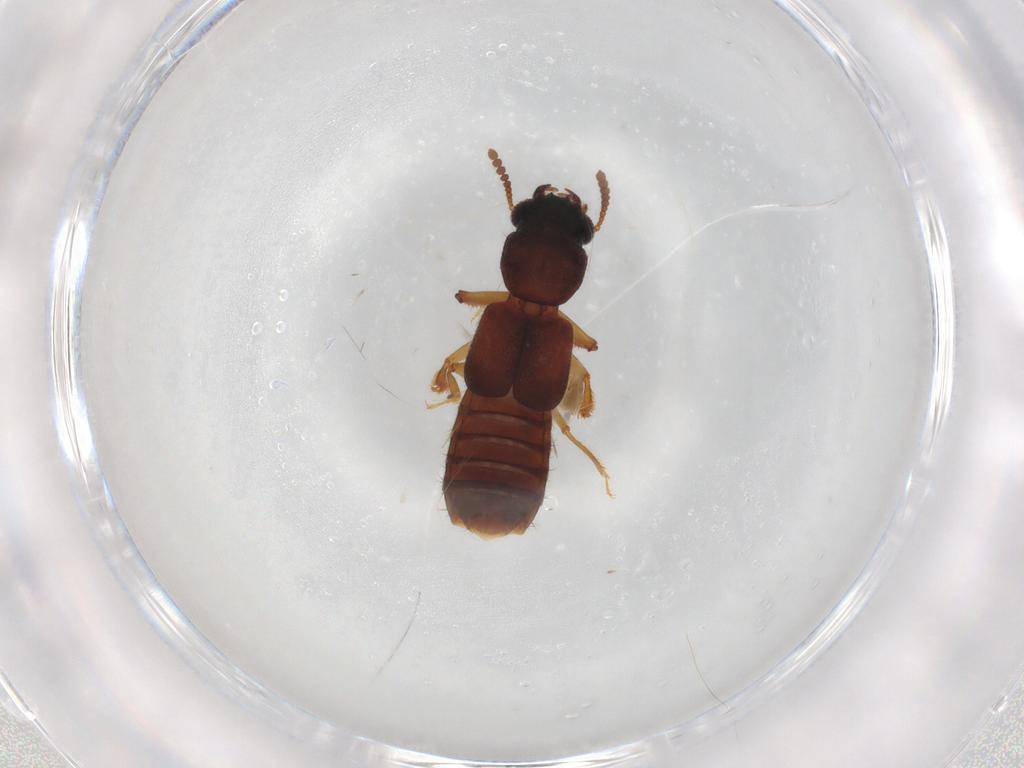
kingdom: Animalia
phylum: Arthropoda
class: Insecta
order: Coleoptera
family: Staphylinidae
